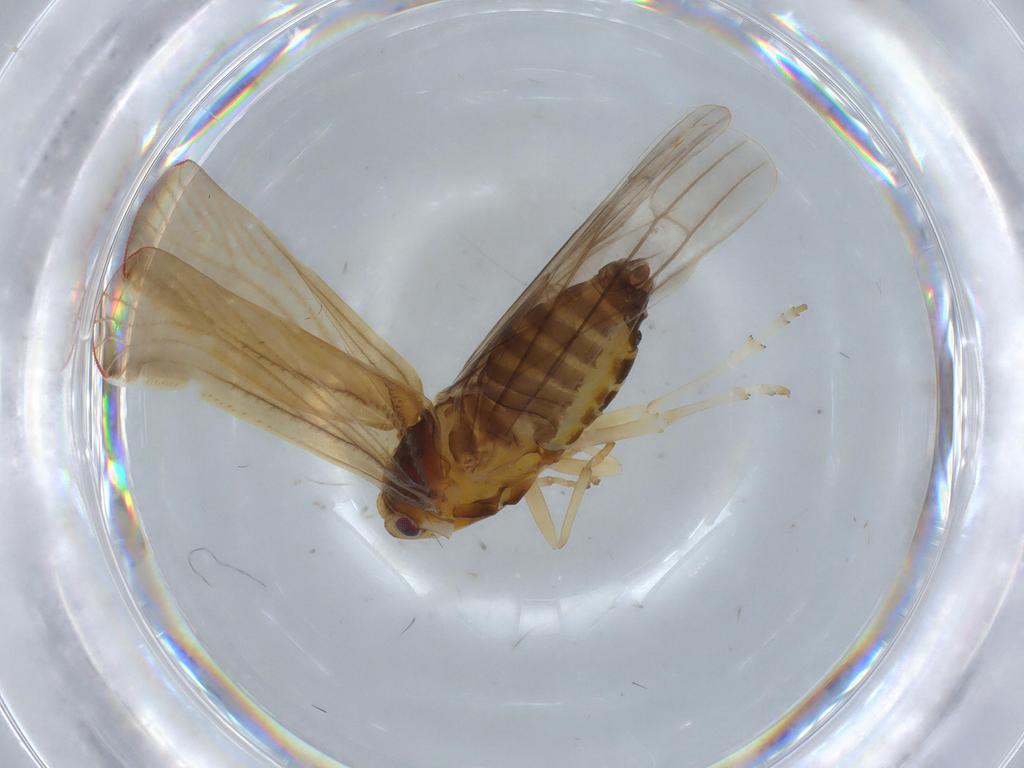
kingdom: Animalia
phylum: Arthropoda
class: Insecta
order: Hemiptera
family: Derbidae
